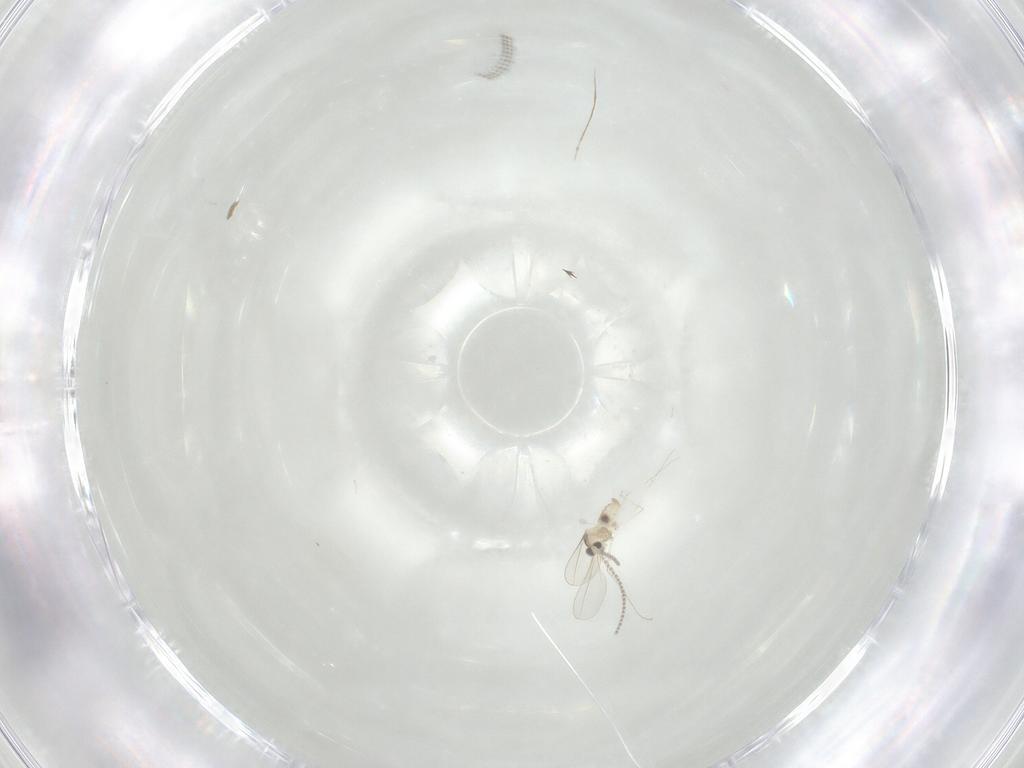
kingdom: Animalia
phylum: Arthropoda
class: Insecta
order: Diptera
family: Cecidomyiidae
